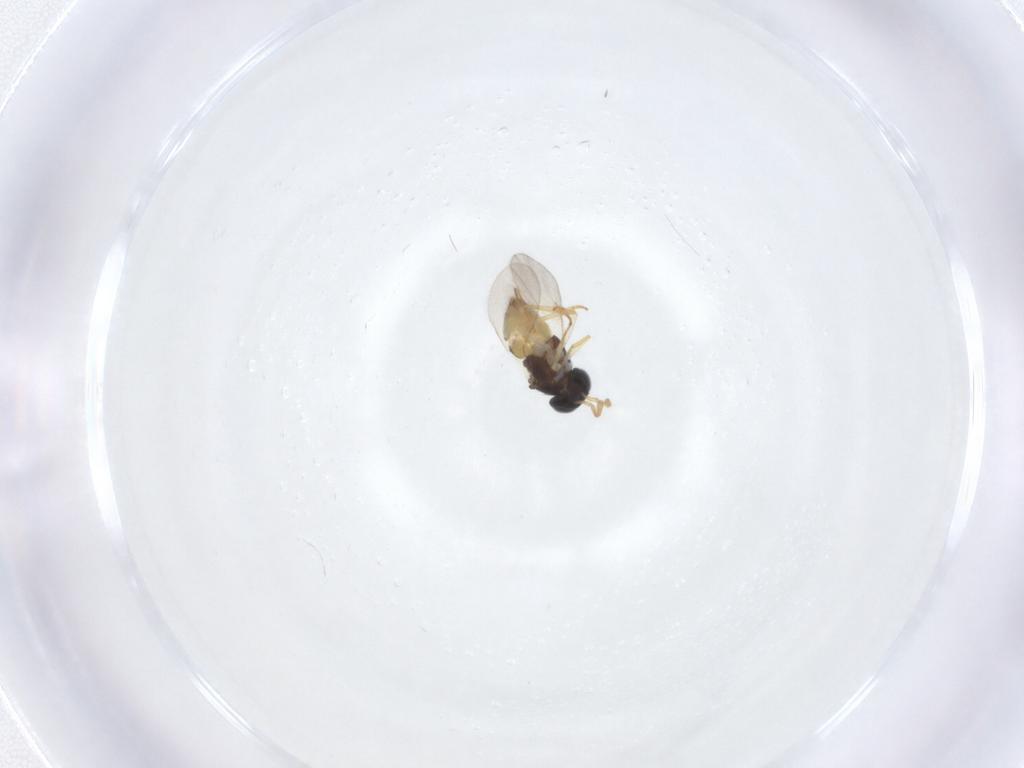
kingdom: Animalia
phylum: Arthropoda
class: Insecta
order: Hymenoptera
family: Encyrtidae
